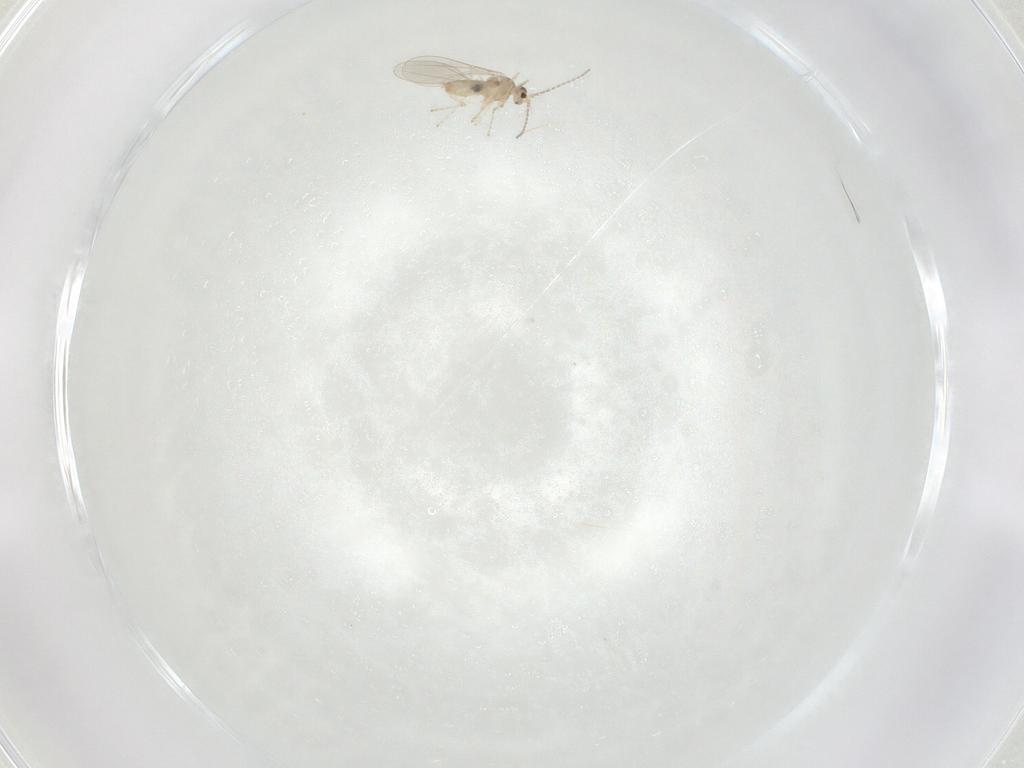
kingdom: Animalia
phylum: Arthropoda
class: Insecta
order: Diptera
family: Cecidomyiidae
